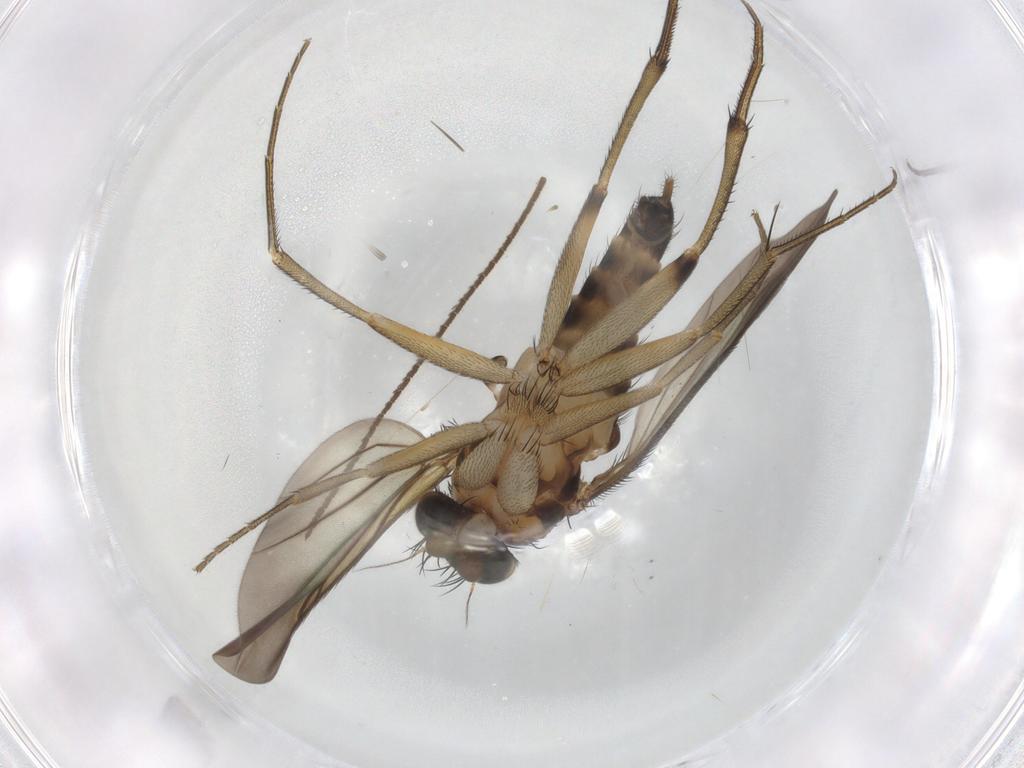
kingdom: Animalia
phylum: Arthropoda
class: Insecta
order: Diptera
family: Phoridae
